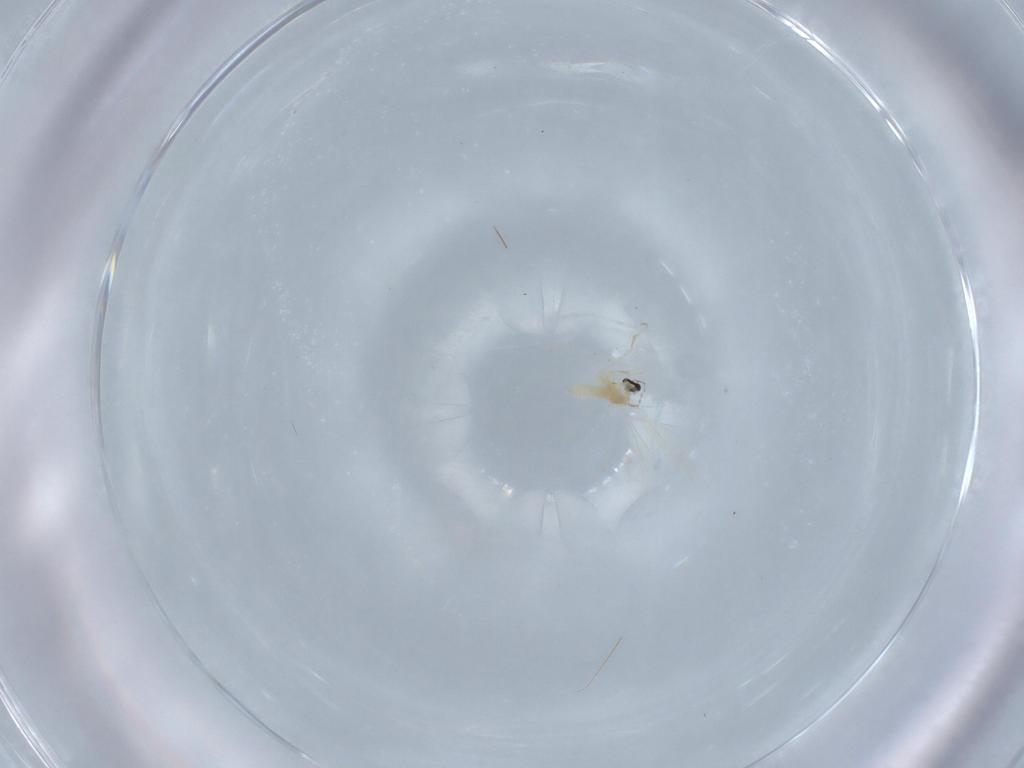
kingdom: Animalia
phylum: Arthropoda
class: Insecta
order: Diptera
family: Cecidomyiidae
